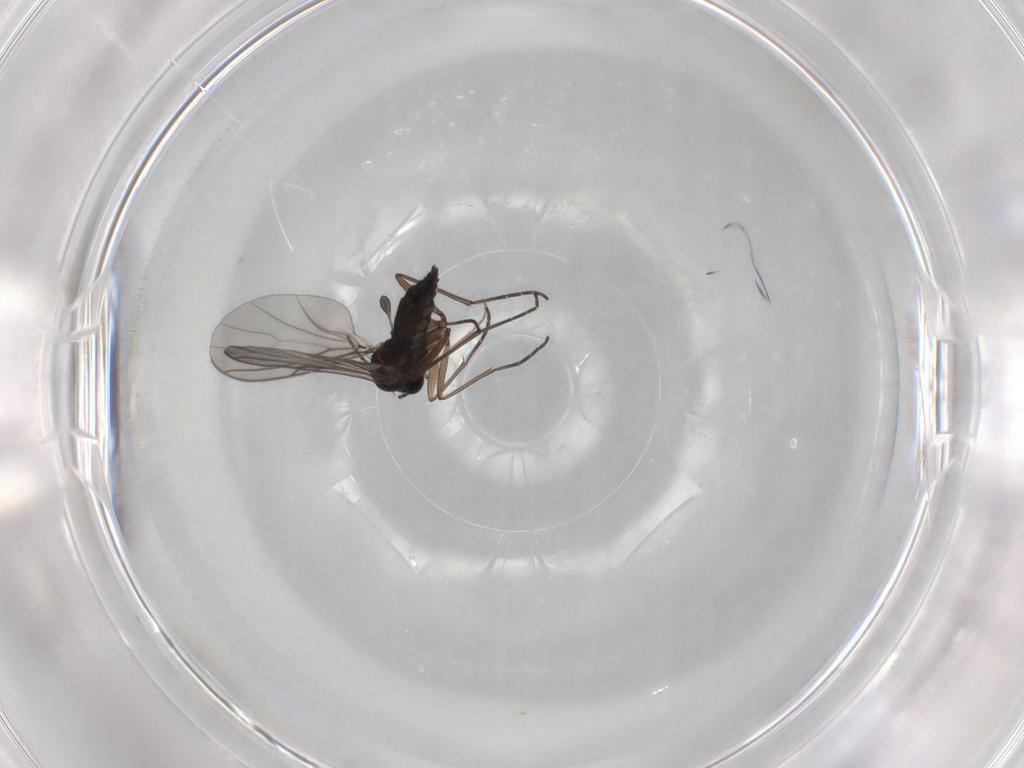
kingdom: Animalia
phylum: Arthropoda
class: Insecta
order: Diptera
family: Sciaridae
